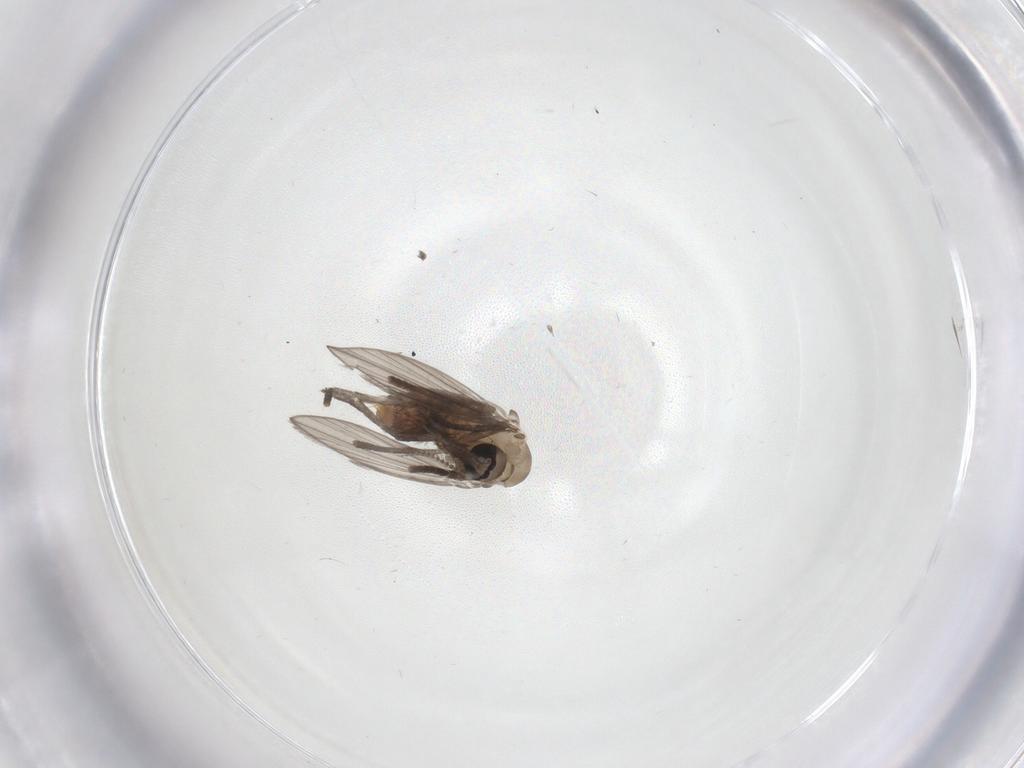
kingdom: Animalia
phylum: Arthropoda
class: Insecta
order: Diptera
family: Psychodidae
